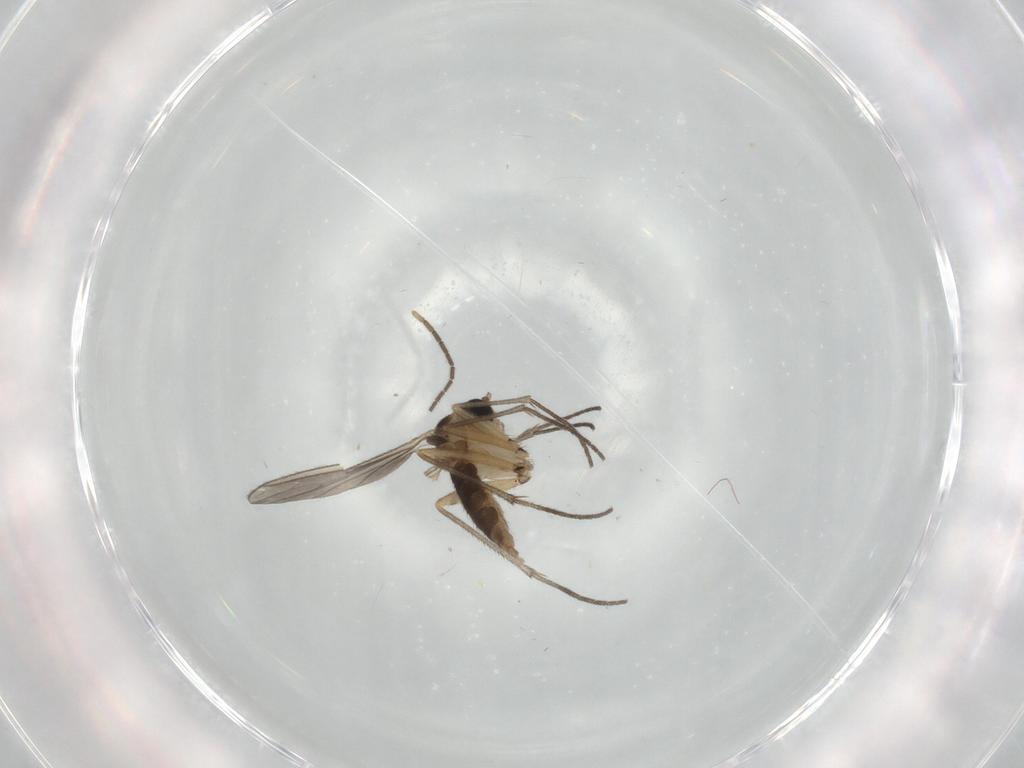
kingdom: Animalia
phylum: Arthropoda
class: Insecta
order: Diptera
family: Sciaridae
